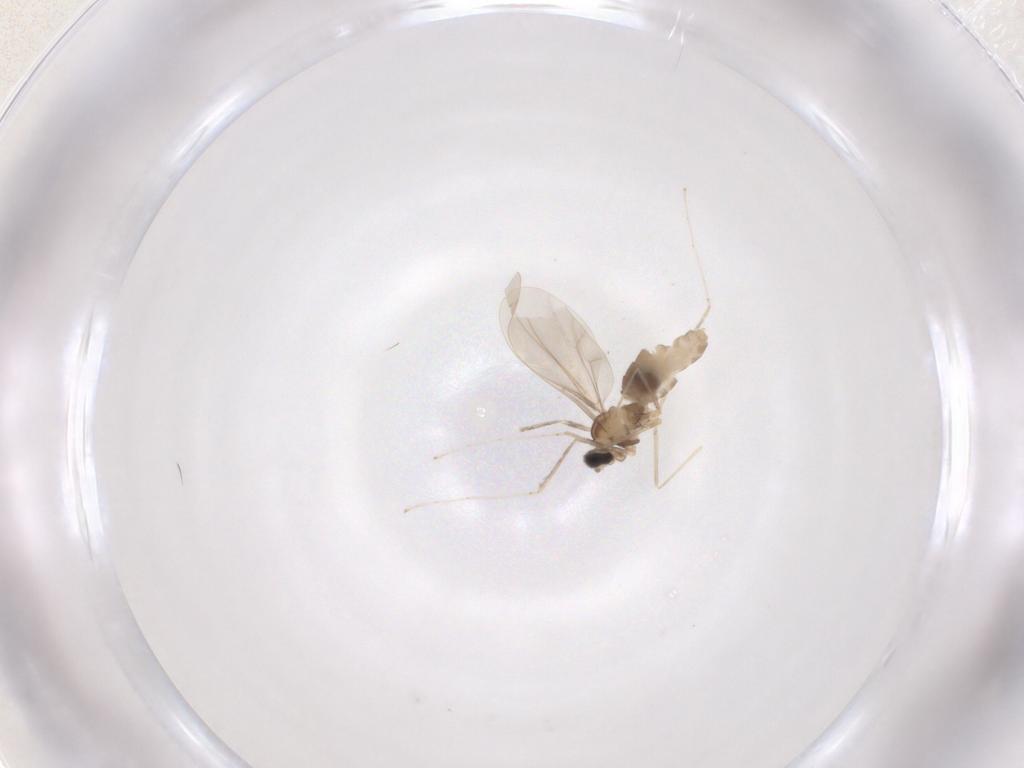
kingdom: Animalia
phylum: Arthropoda
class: Insecta
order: Diptera
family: Cecidomyiidae
